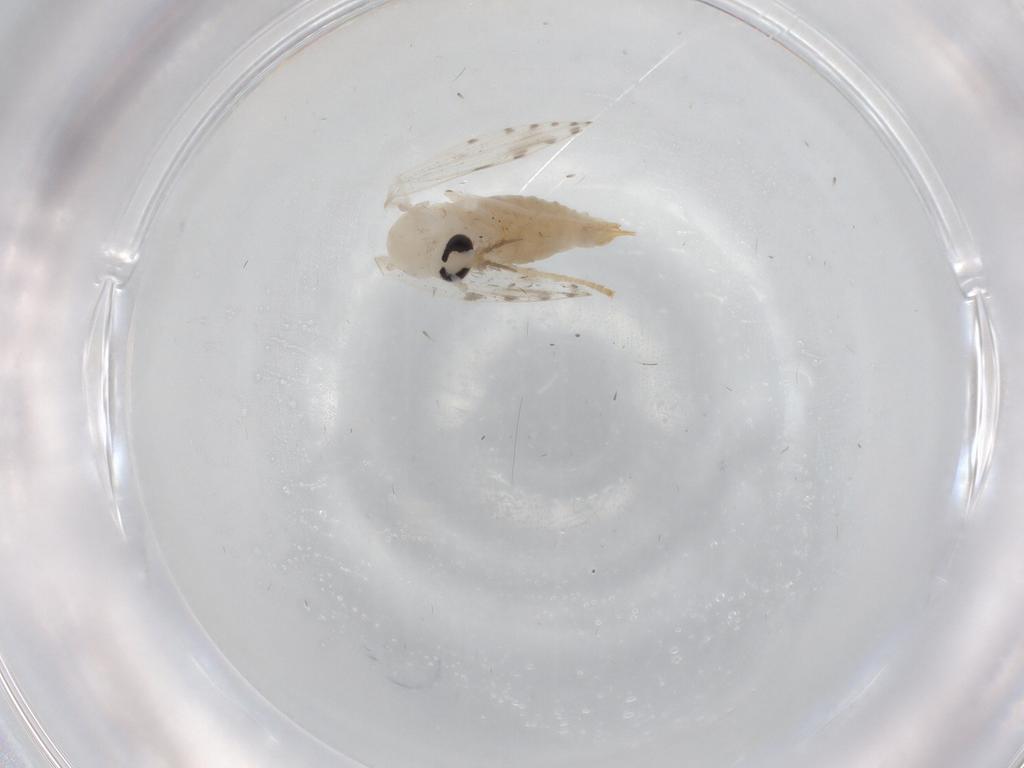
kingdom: Animalia
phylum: Arthropoda
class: Insecta
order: Diptera
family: Psychodidae
